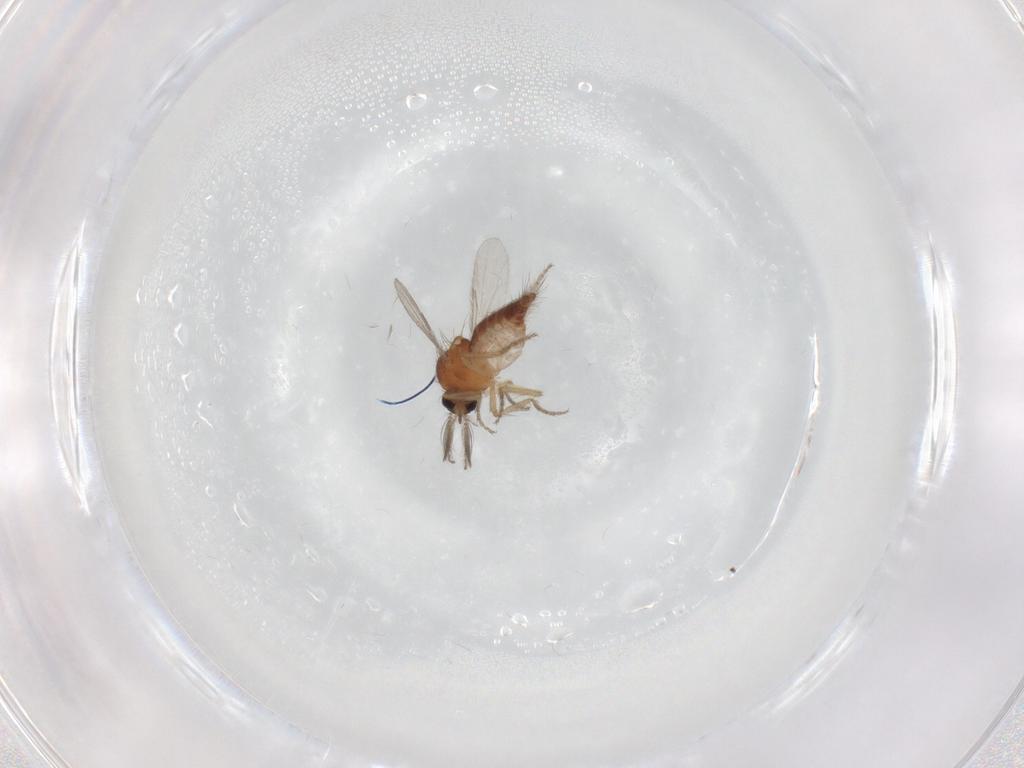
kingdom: Animalia
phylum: Arthropoda
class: Insecta
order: Diptera
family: Ceratopogonidae
